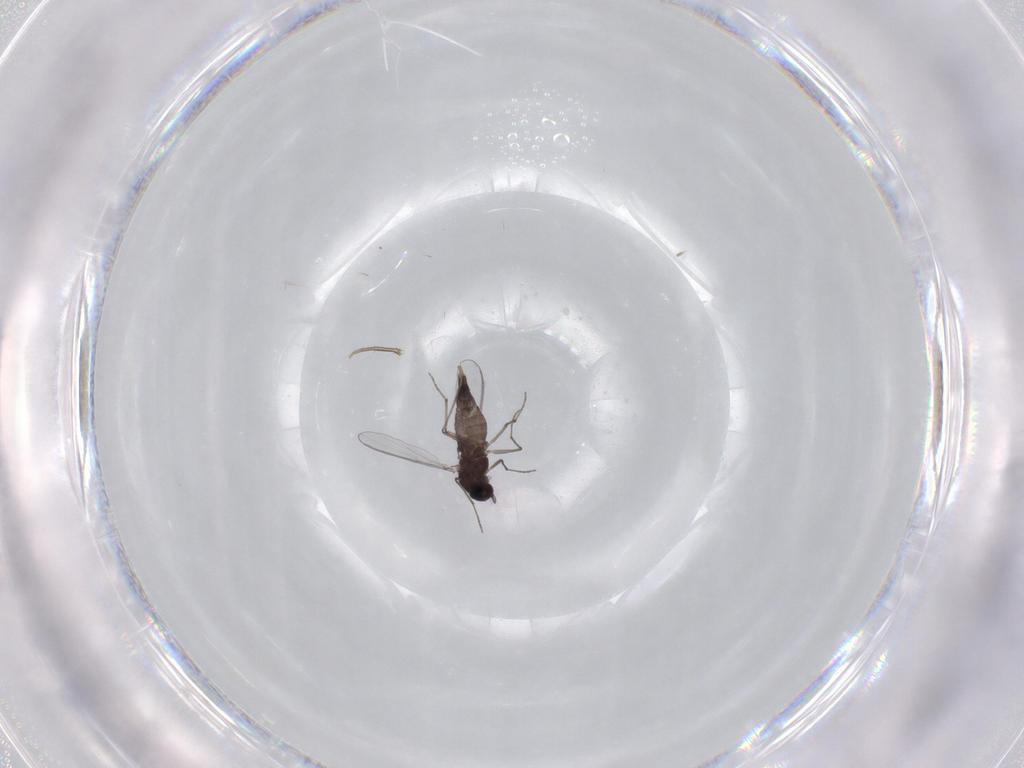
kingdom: Animalia
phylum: Arthropoda
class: Insecta
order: Diptera
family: Chironomidae
